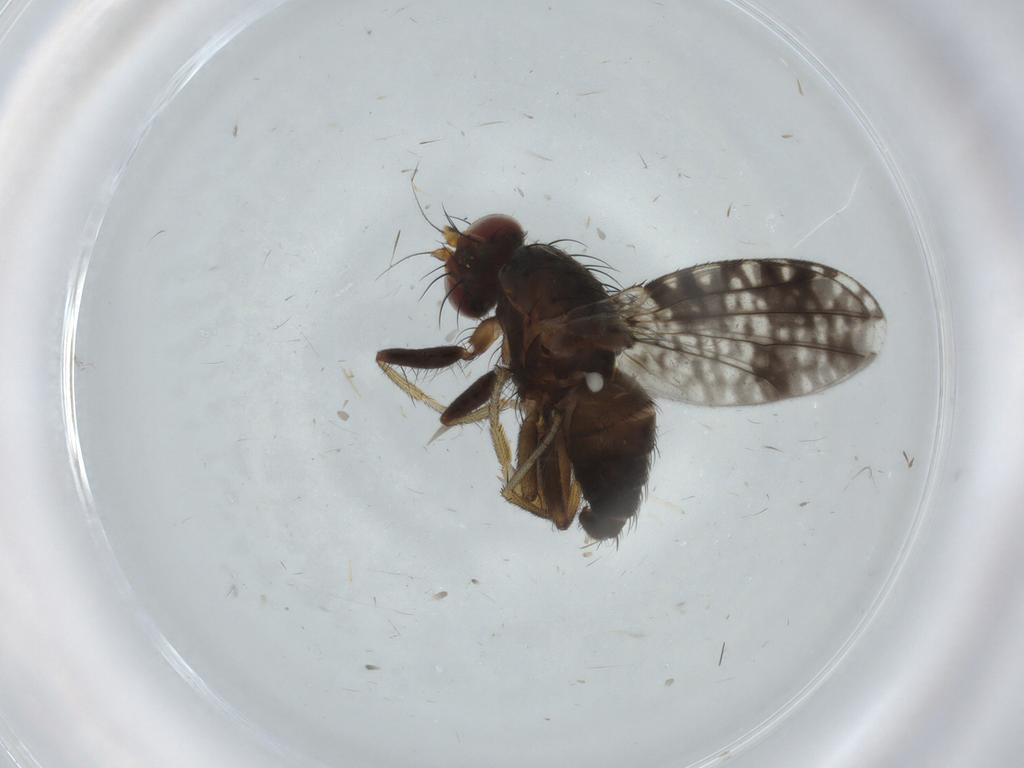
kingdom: Animalia
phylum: Arthropoda
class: Insecta
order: Diptera
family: Tephritidae
